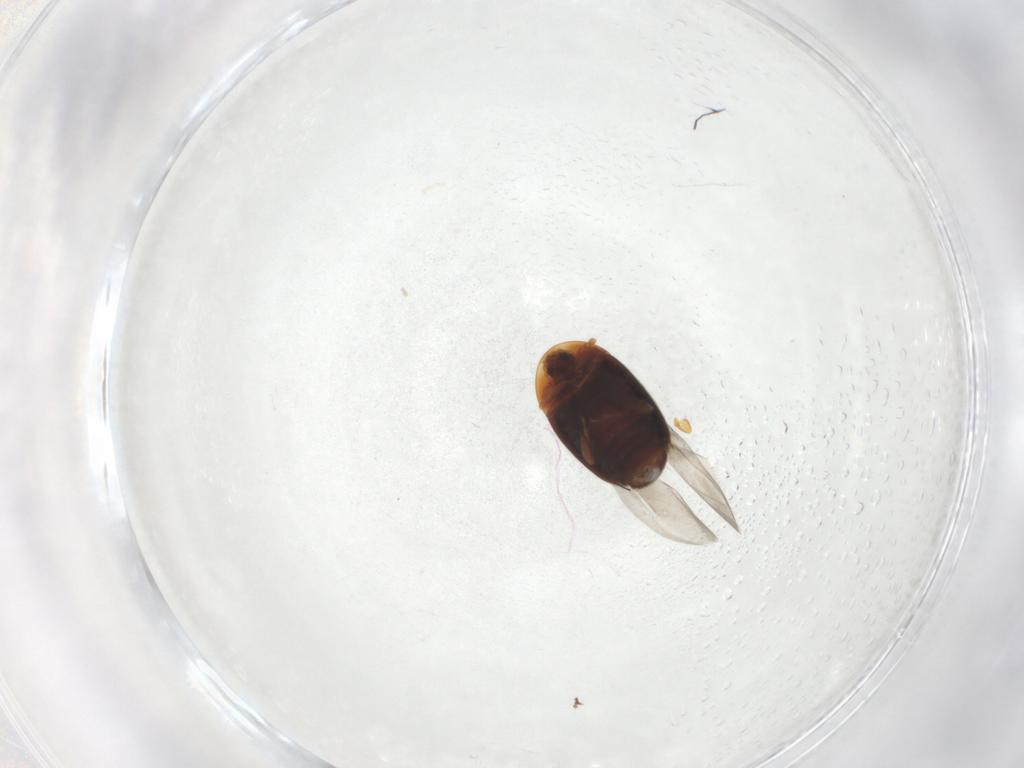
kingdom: Animalia
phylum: Arthropoda
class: Insecta
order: Coleoptera
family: Corylophidae
